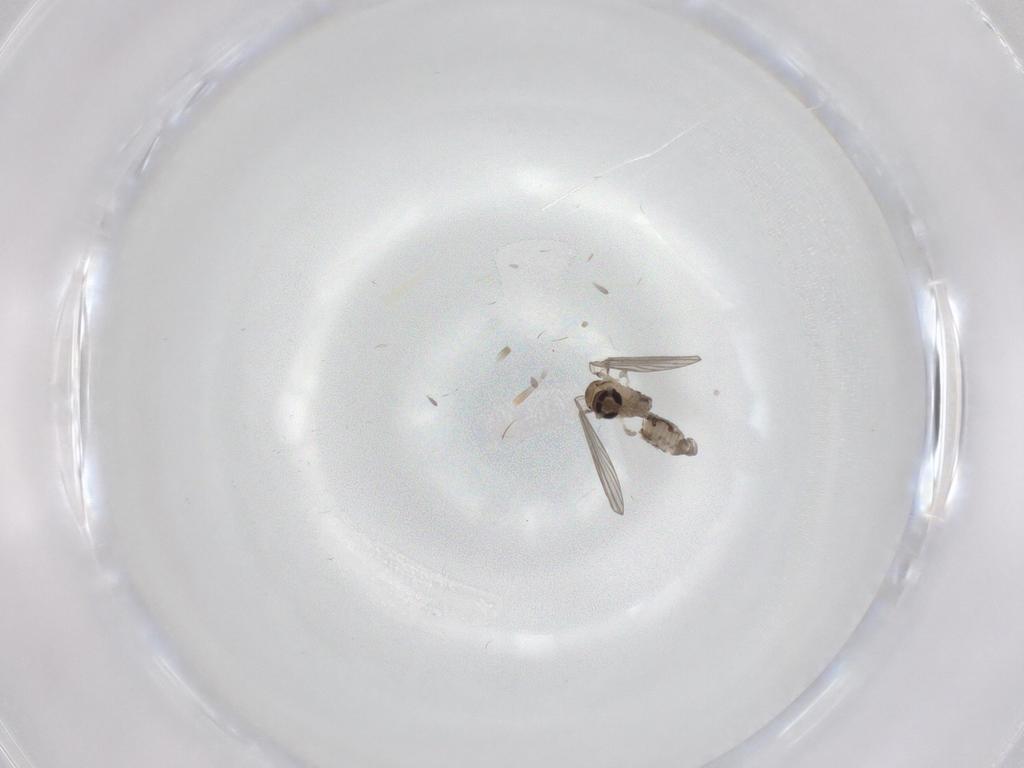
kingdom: Animalia
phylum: Arthropoda
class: Insecta
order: Diptera
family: Psychodidae
